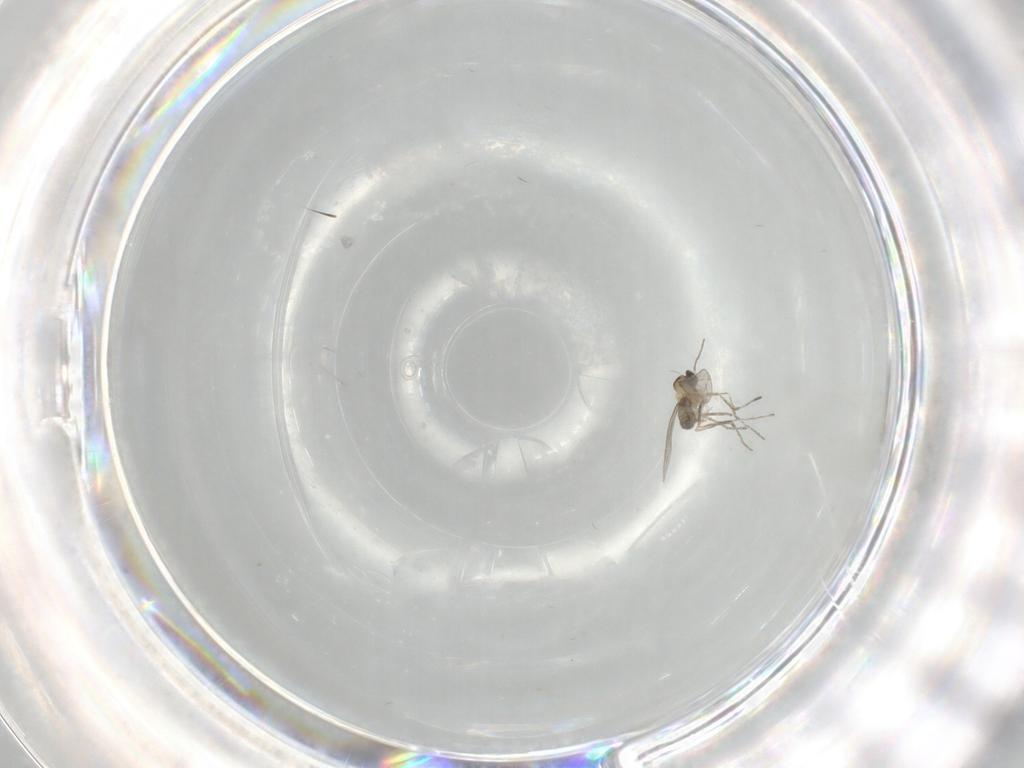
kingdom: Animalia
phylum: Arthropoda
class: Insecta
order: Diptera
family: Ceratopogonidae
